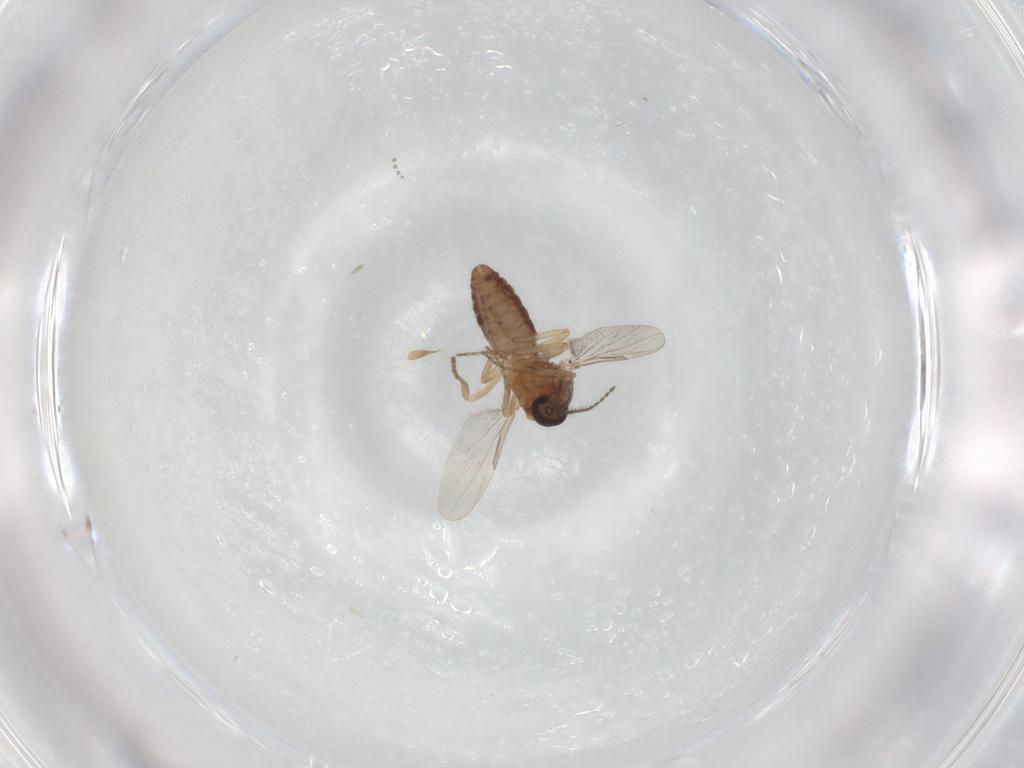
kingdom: Animalia
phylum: Arthropoda
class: Insecta
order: Diptera
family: Ceratopogonidae
